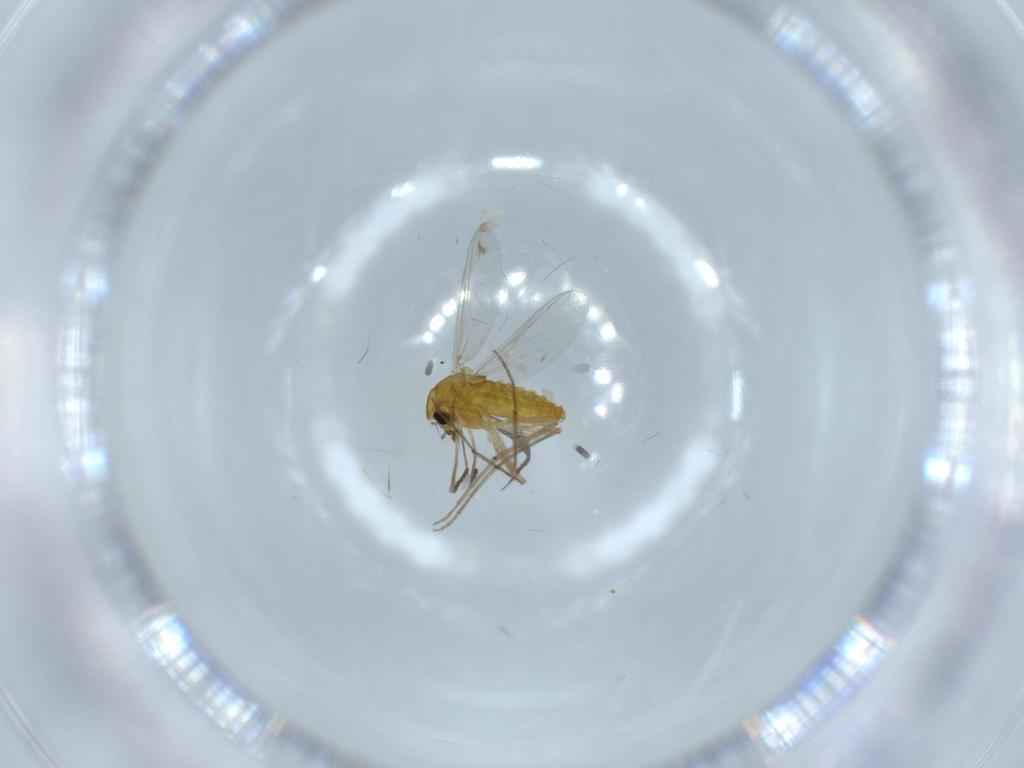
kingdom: Animalia
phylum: Arthropoda
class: Insecta
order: Diptera
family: Chironomidae
